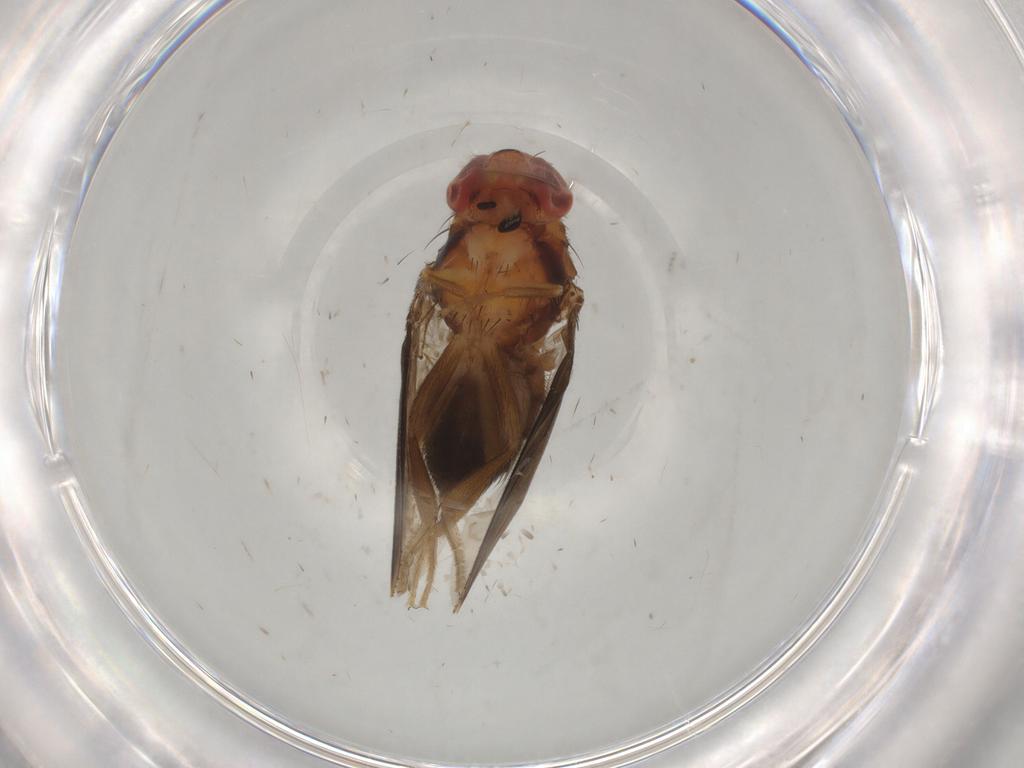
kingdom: Animalia
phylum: Arthropoda
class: Insecta
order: Diptera
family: Drosophilidae
